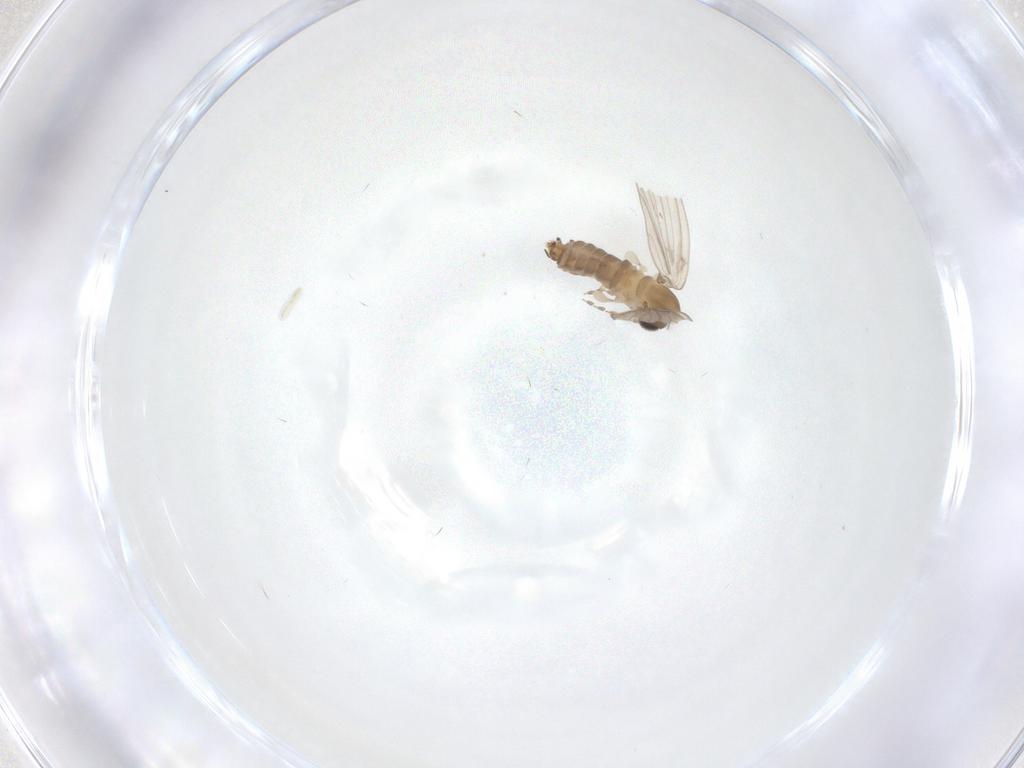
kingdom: Animalia
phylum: Arthropoda
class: Insecta
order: Diptera
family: Psychodidae
